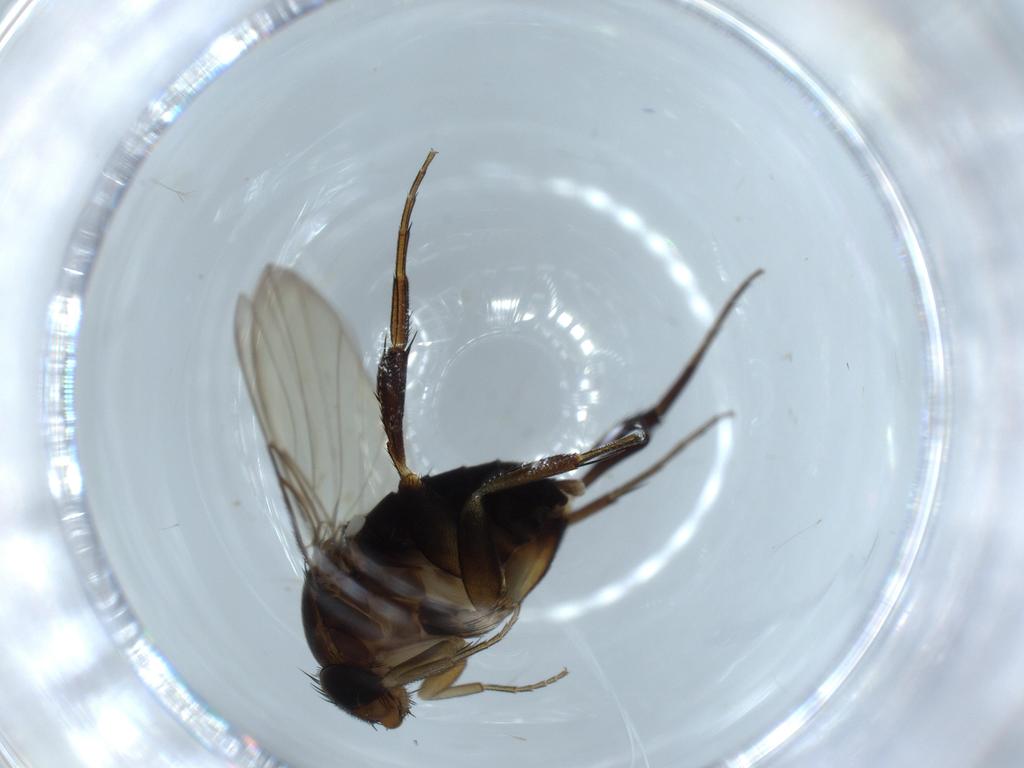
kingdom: Animalia
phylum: Arthropoda
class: Insecta
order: Diptera
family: Phoridae
